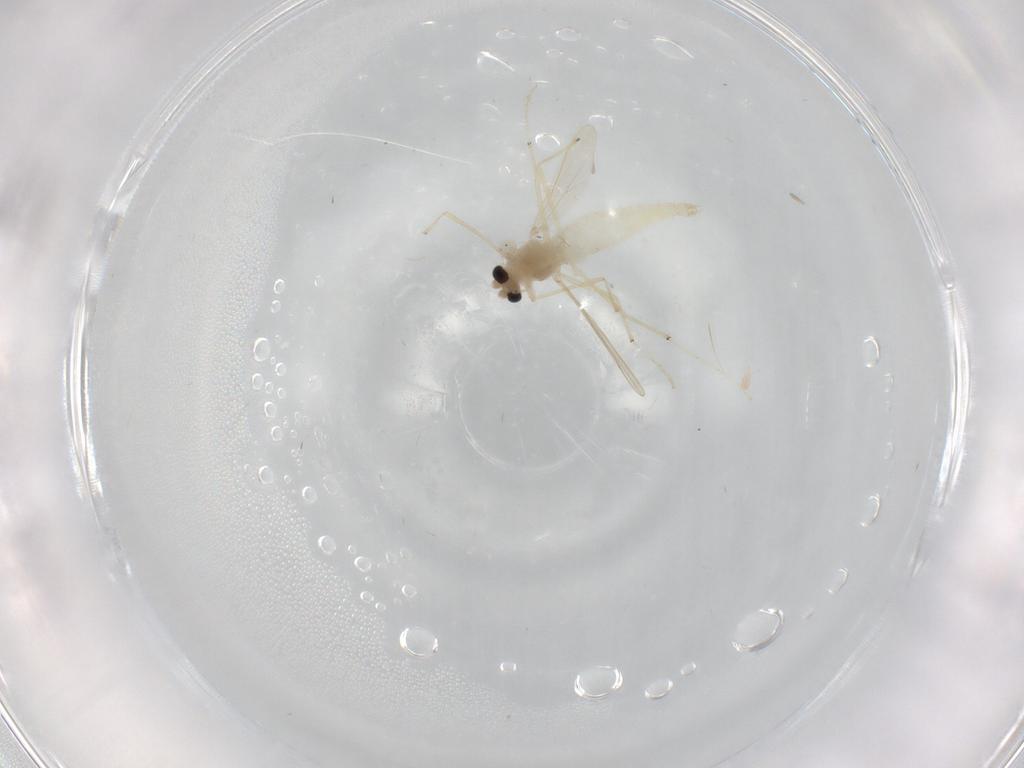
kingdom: Animalia
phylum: Arthropoda
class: Insecta
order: Diptera
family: Chironomidae
